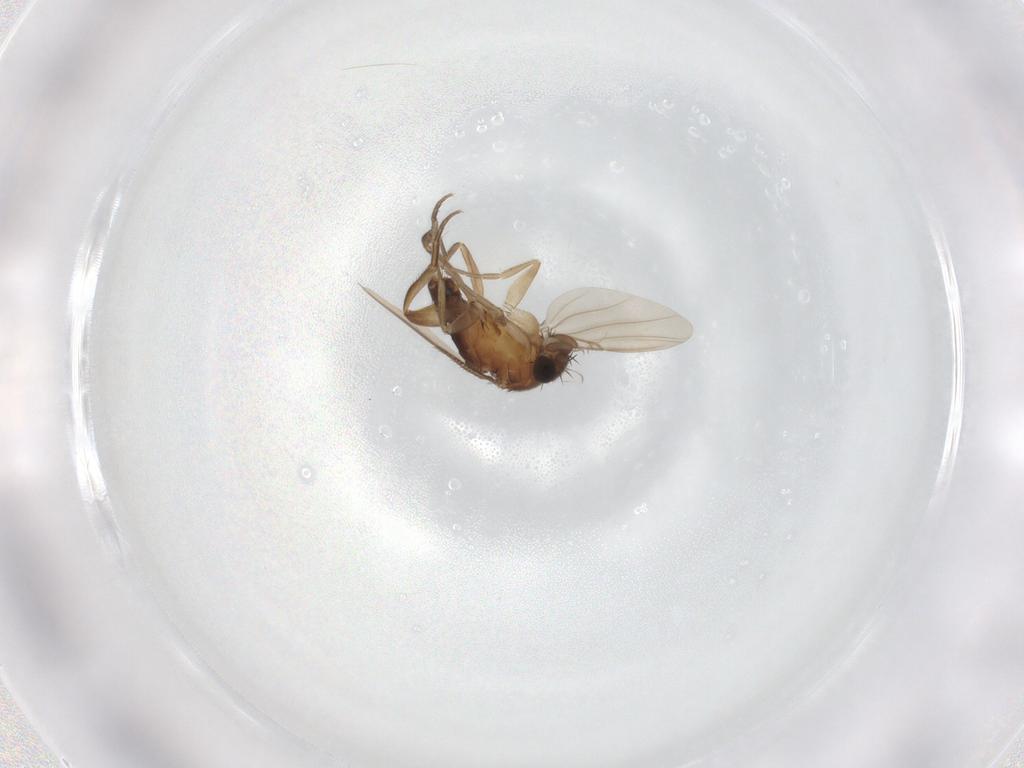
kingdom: Animalia
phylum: Arthropoda
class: Insecta
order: Diptera
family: Phoridae
